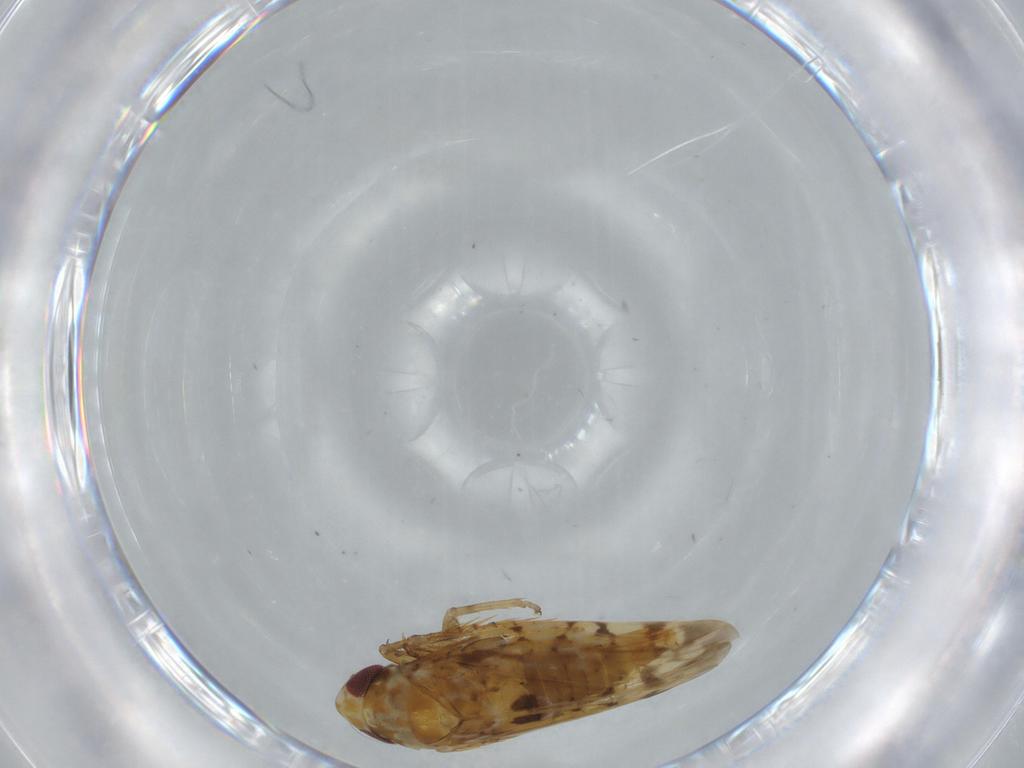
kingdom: Animalia
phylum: Arthropoda
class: Insecta
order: Hemiptera
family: Cicadellidae
